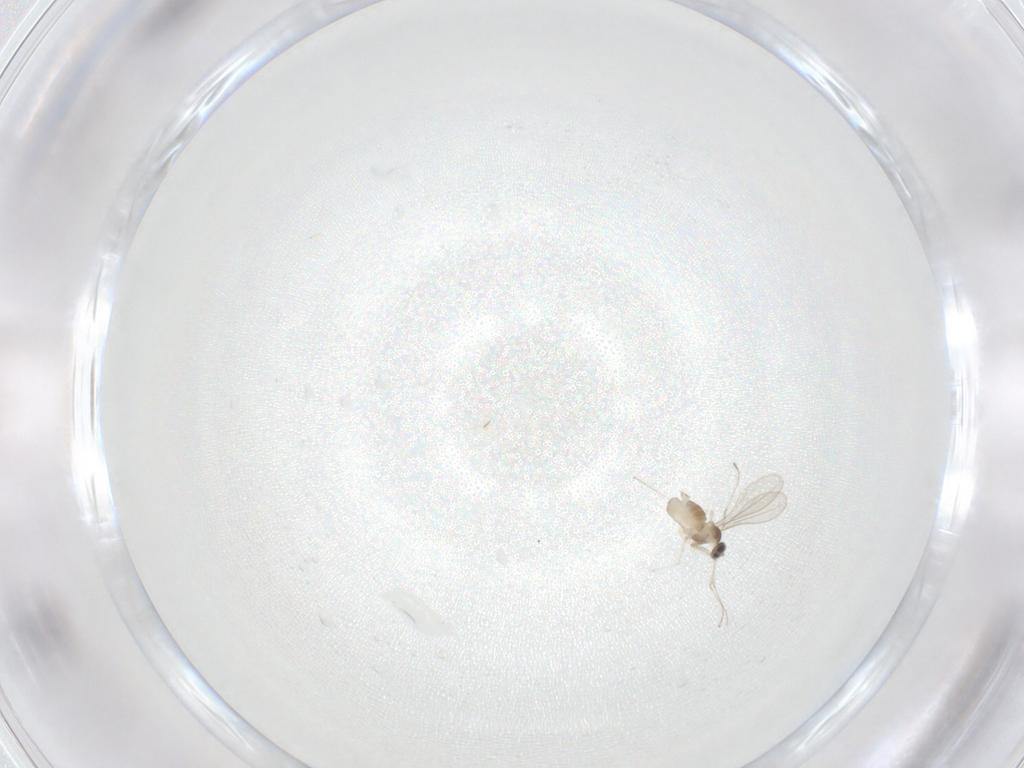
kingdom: Animalia
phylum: Arthropoda
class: Insecta
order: Diptera
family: Cecidomyiidae
